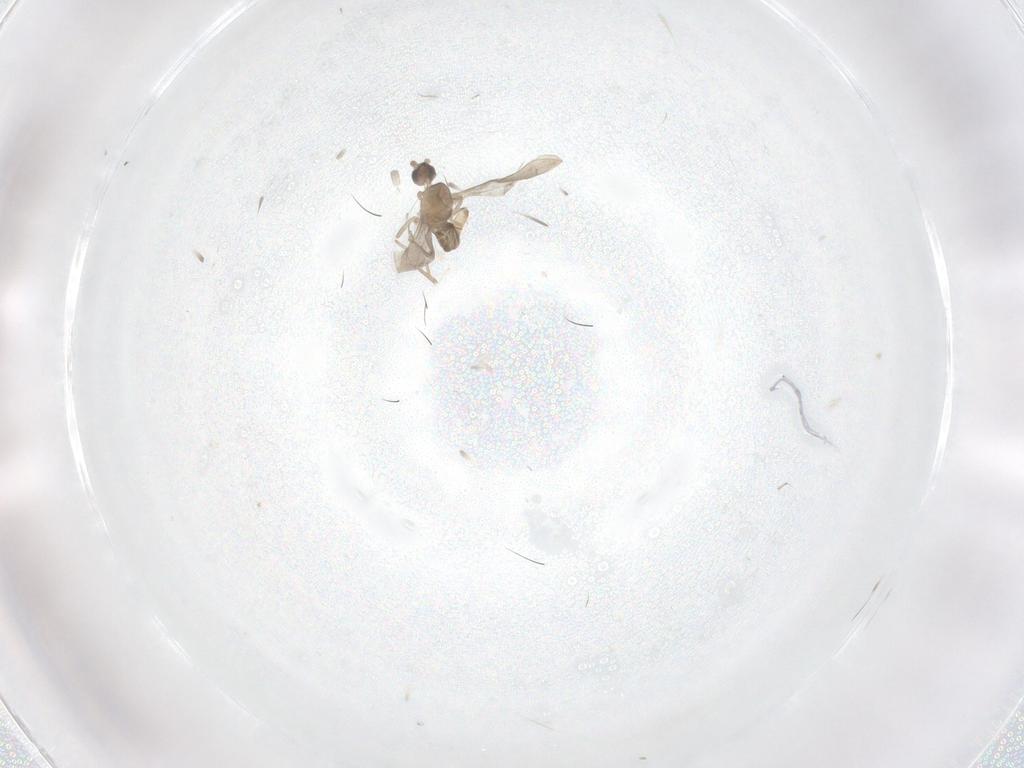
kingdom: Animalia
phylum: Arthropoda
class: Insecta
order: Diptera
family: Cecidomyiidae
